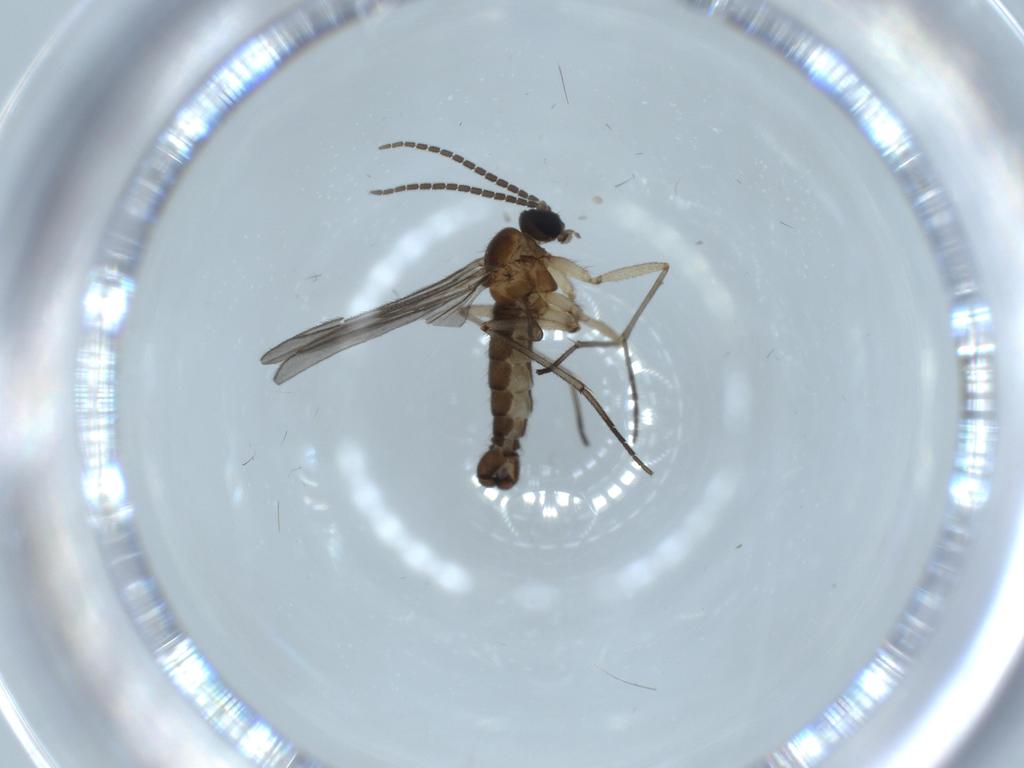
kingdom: Animalia
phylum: Arthropoda
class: Insecta
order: Diptera
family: Sciaridae
